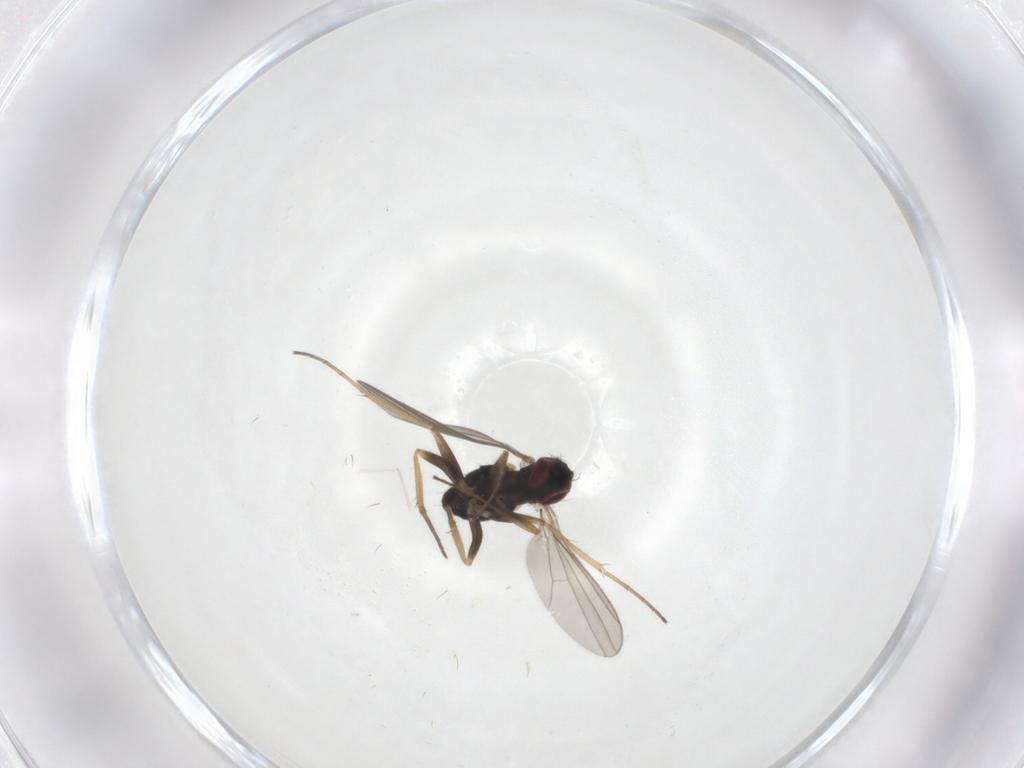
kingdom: Animalia
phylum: Arthropoda
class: Insecta
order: Diptera
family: Dolichopodidae
